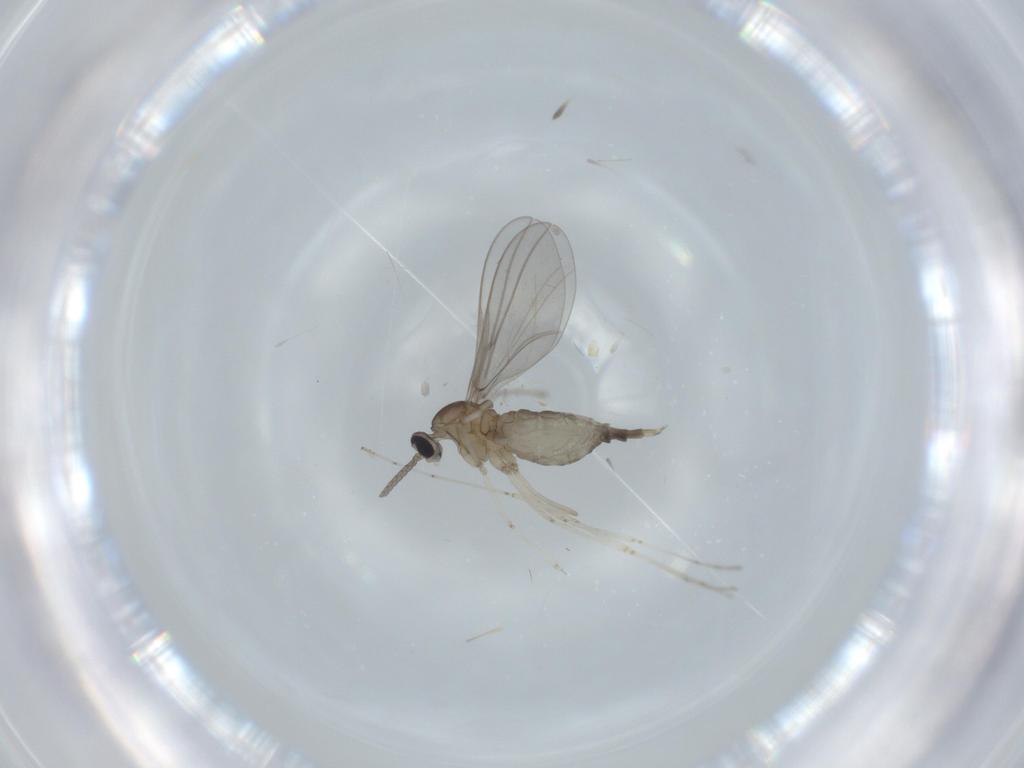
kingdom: Animalia
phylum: Arthropoda
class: Insecta
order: Diptera
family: Cecidomyiidae
